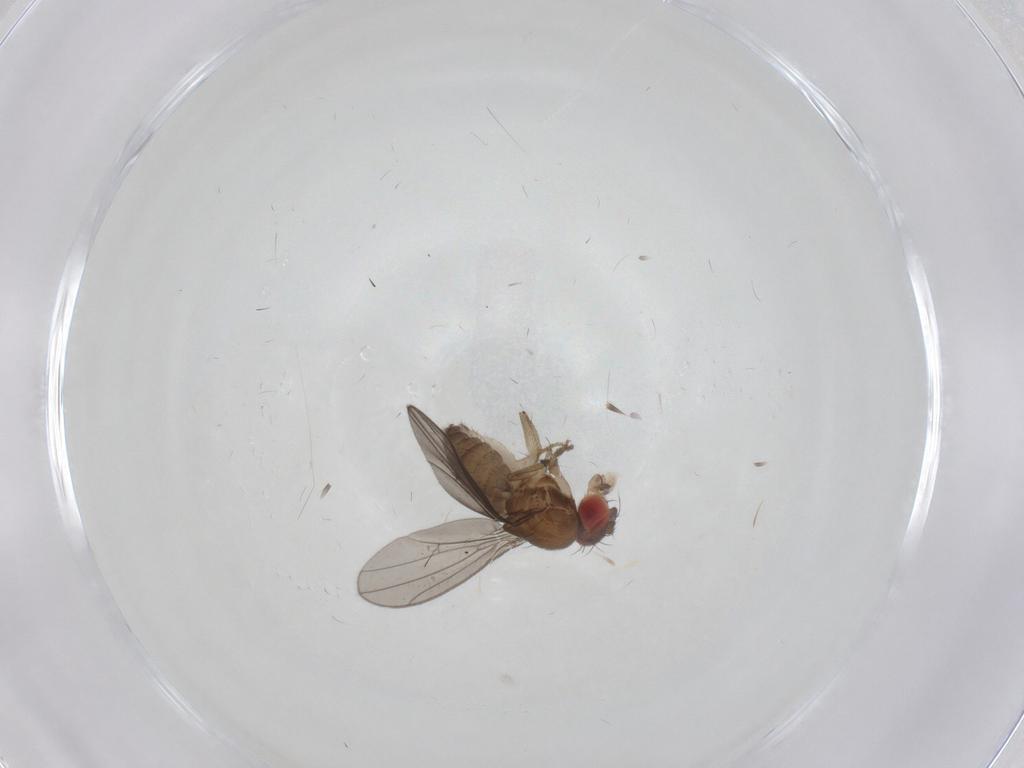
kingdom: Animalia
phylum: Arthropoda
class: Insecta
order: Diptera
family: Drosophilidae
